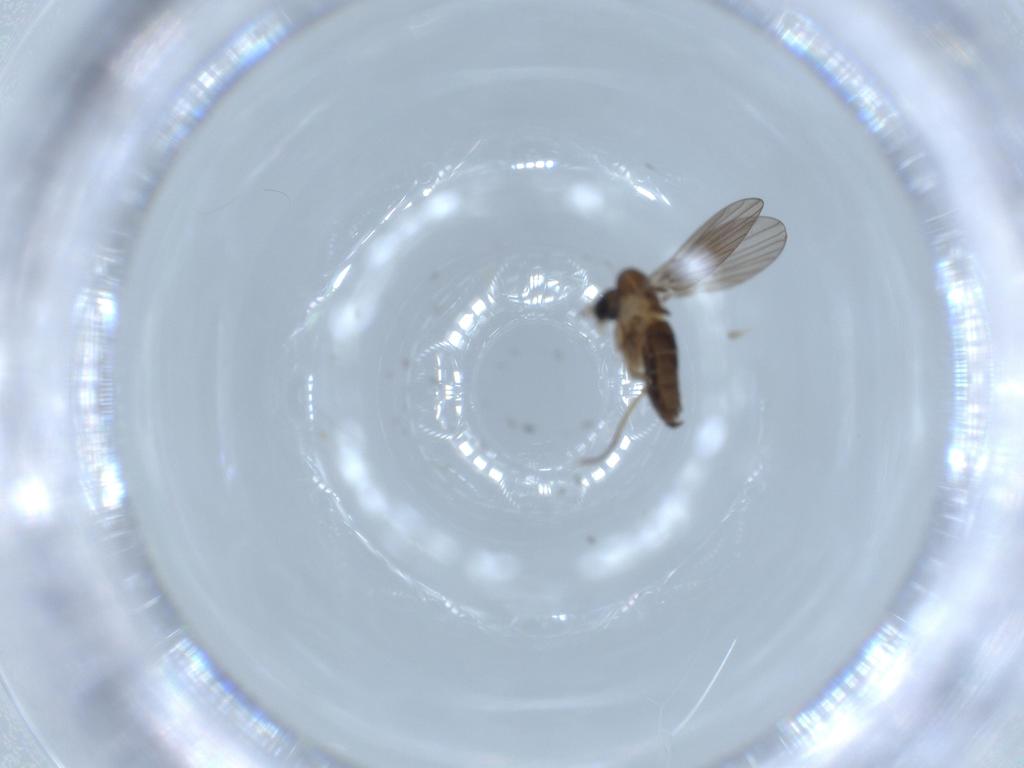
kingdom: Animalia
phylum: Arthropoda
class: Insecta
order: Diptera
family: Psychodidae
